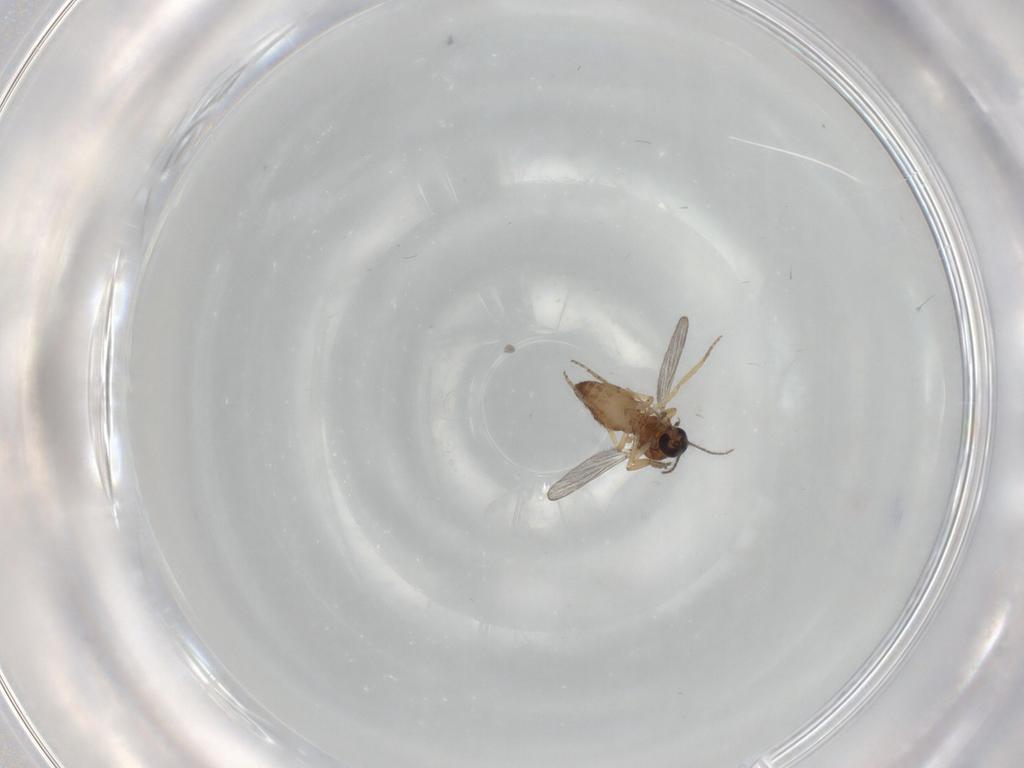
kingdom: Animalia
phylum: Arthropoda
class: Insecta
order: Diptera
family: Ceratopogonidae
